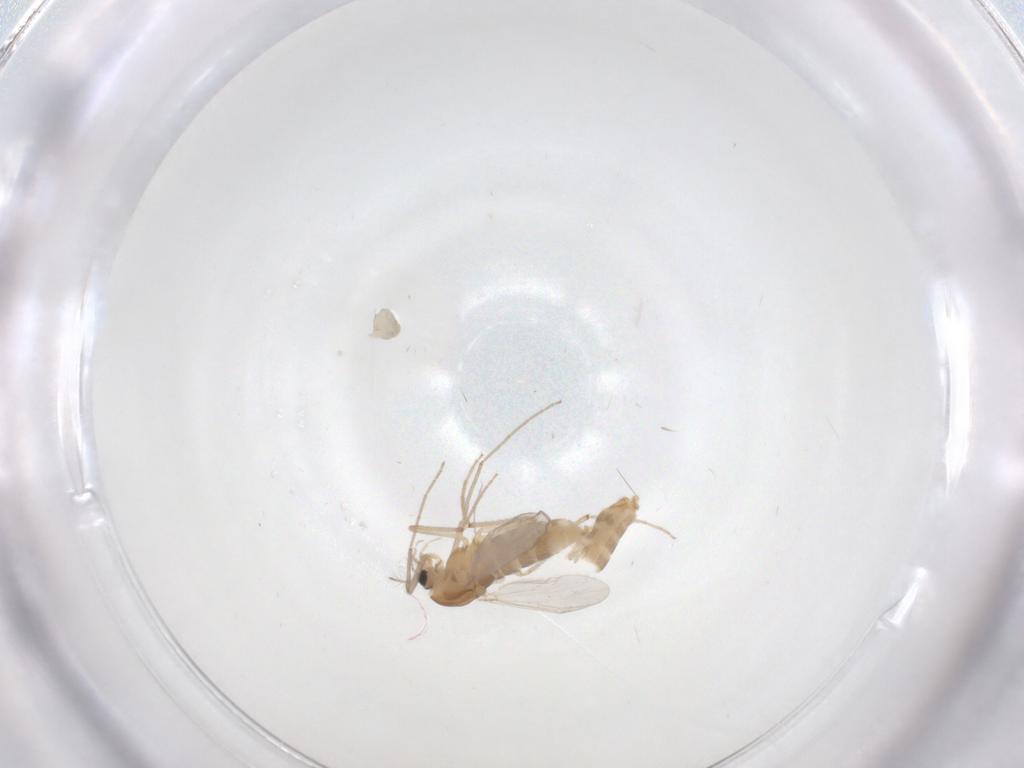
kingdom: Animalia
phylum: Arthropoda
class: Insecta
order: Diptera
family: Chironomidae
